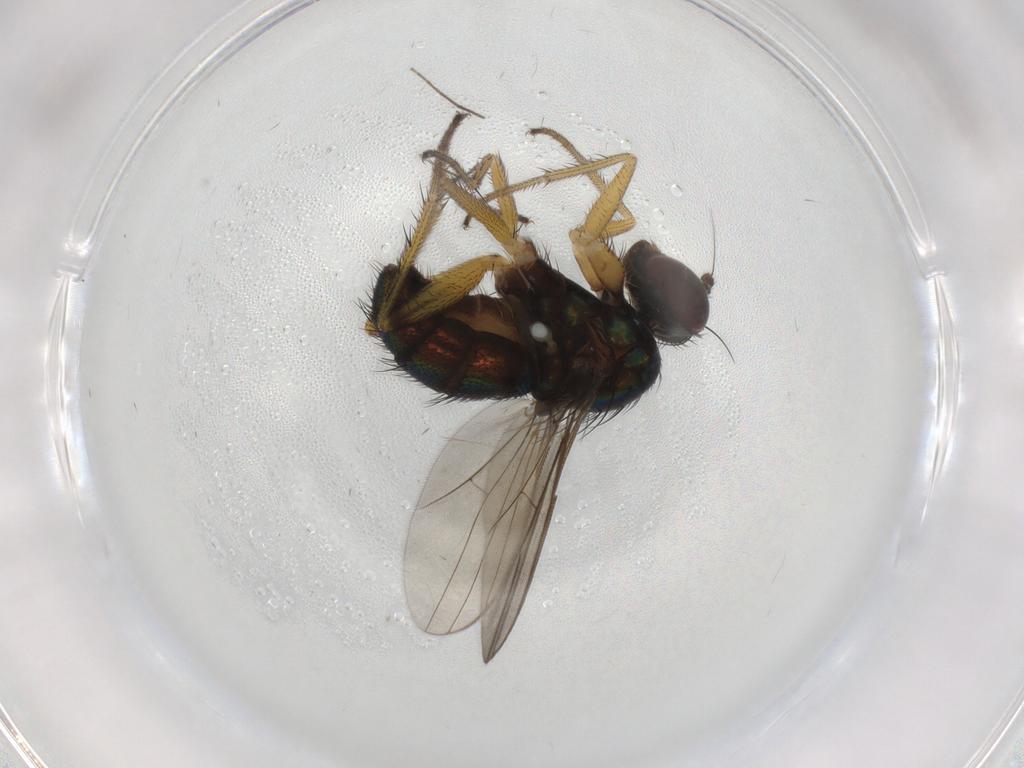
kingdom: Animalia
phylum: Arthropoda
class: Insecta
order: Diptera
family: Dolichopodidae
